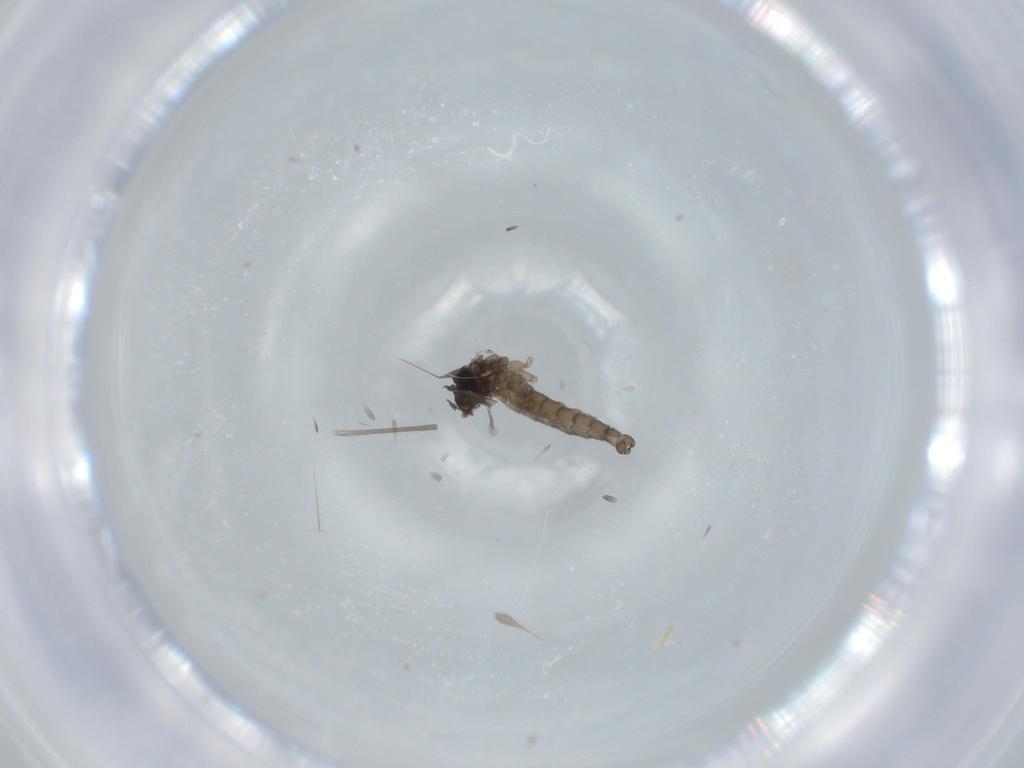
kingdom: Animalia
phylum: Arthropoda
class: Insecta
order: Diptera
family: Cecidomyiidae
